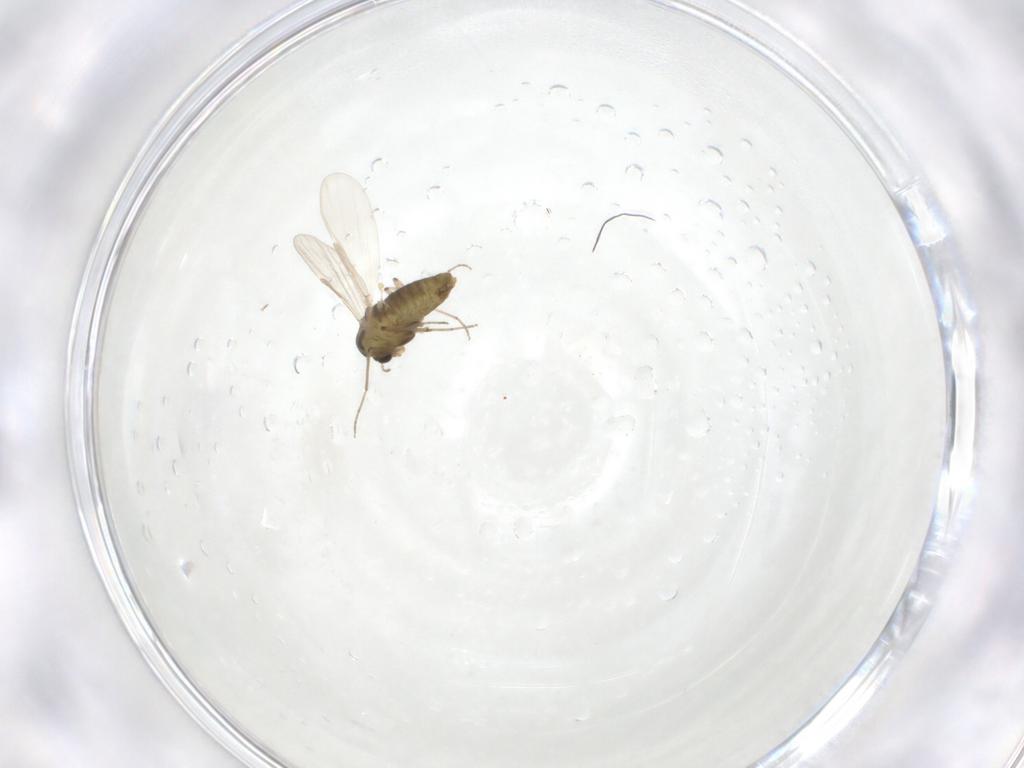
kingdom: Animalia
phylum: Arthropoda
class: Insecta
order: Diptera
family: Chironomidae
